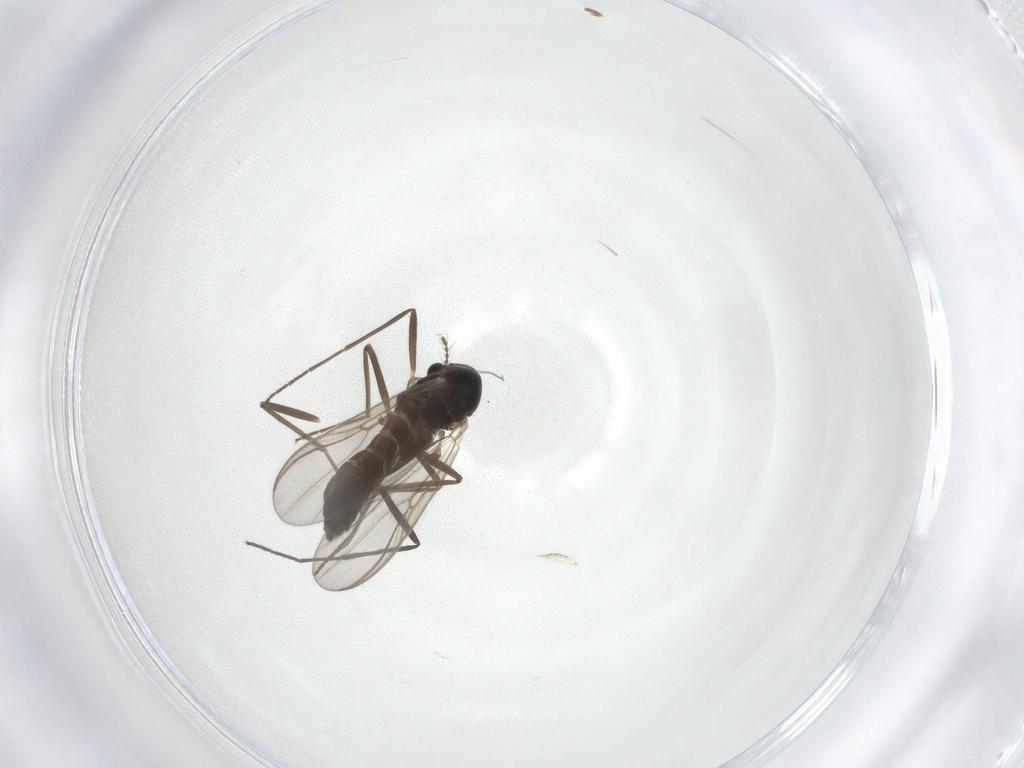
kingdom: Animalia
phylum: Arthropoda
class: Insecta
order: Diptera
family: Chironomidae
